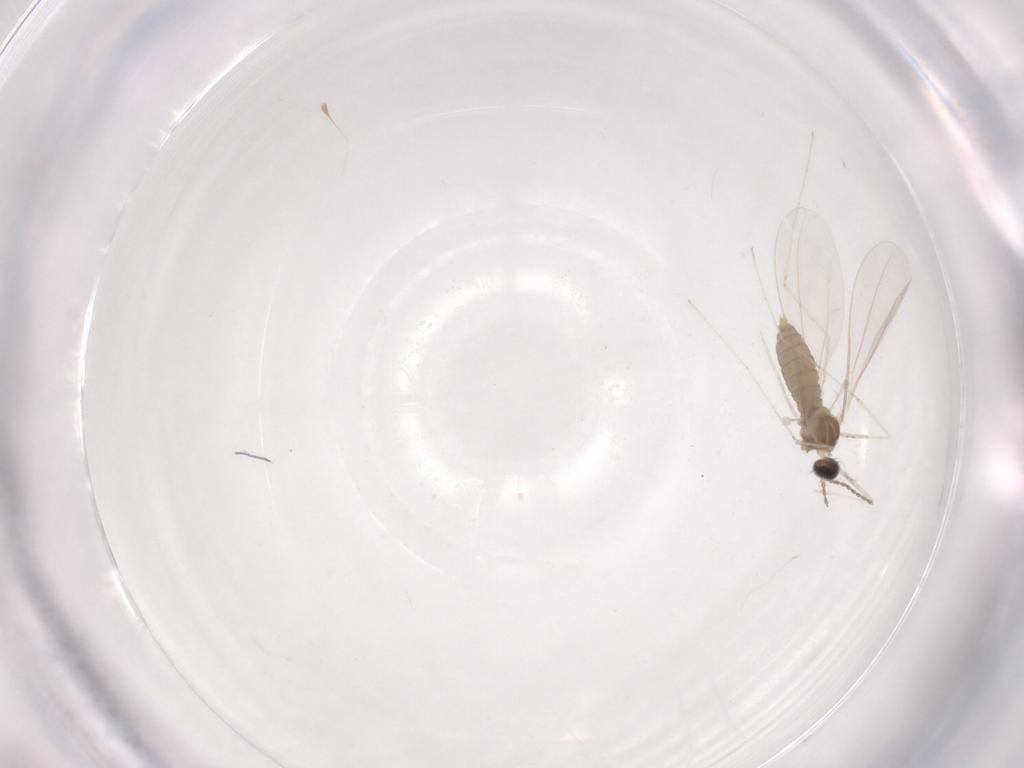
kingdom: Animalia
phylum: Arthropoda
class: Insecta
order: Diptera
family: Cecidomyiidae
